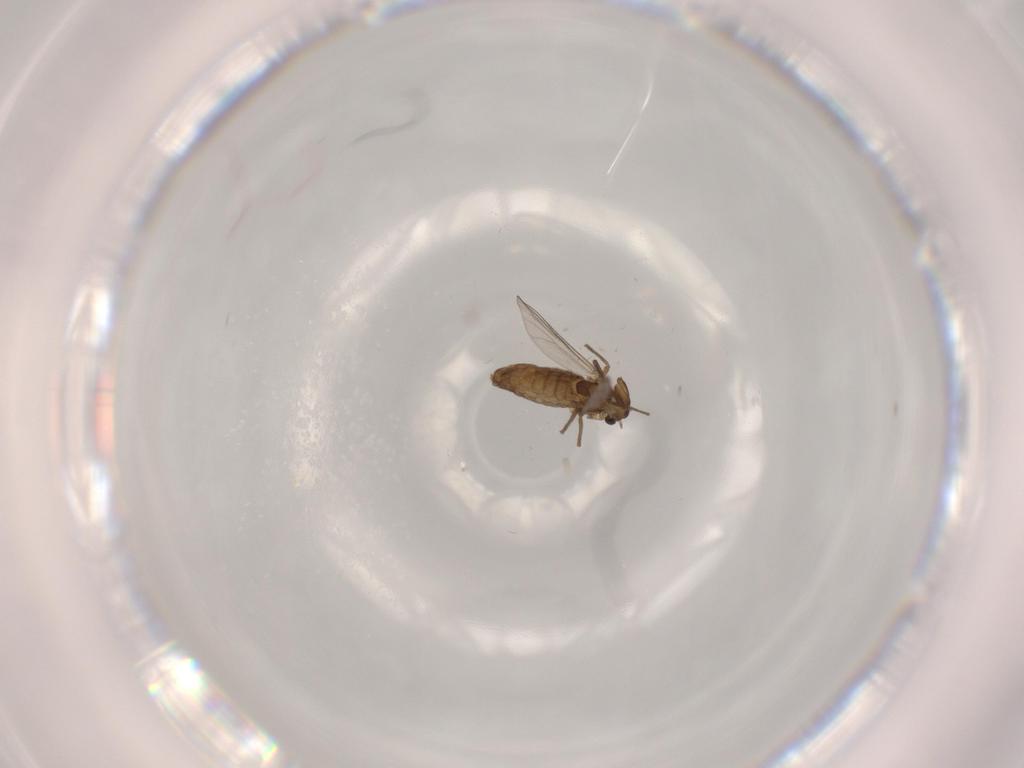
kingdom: Animalia
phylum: Arthropoda
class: Insecta
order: Diptera
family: Chironomidae
